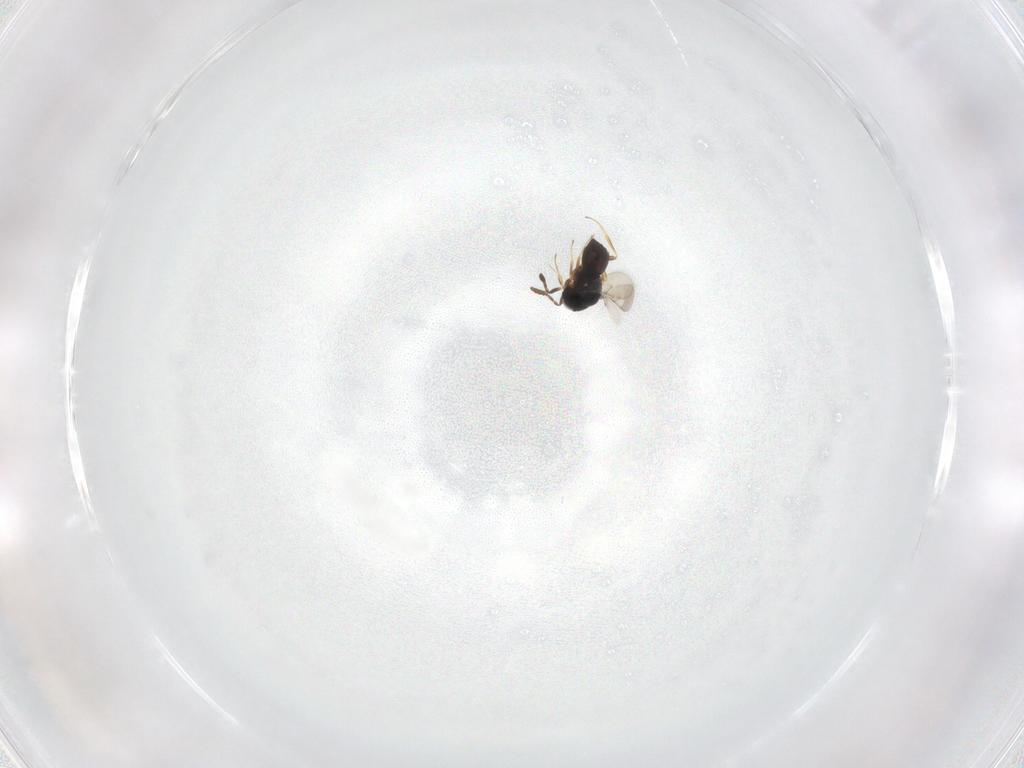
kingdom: Animalia
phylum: Arthropoda
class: Insecta
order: Hymenoptera
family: Scelionidae
